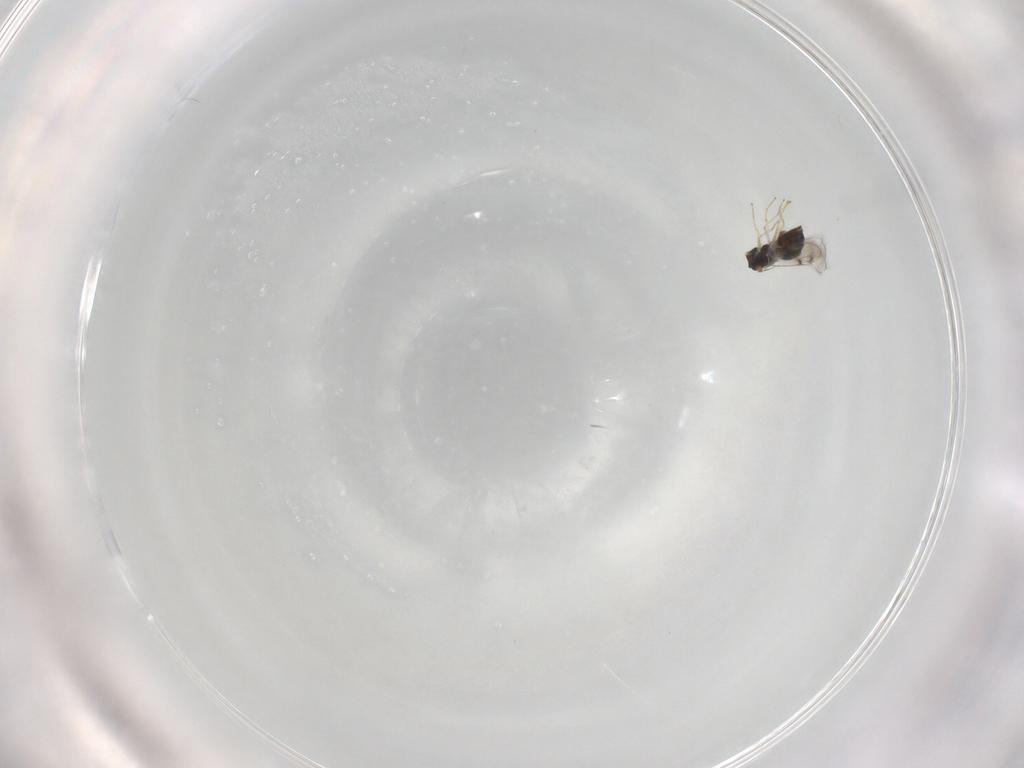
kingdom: Animalia
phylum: Arthropoda
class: Insecta
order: Hymenoptera
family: Eulophidae
